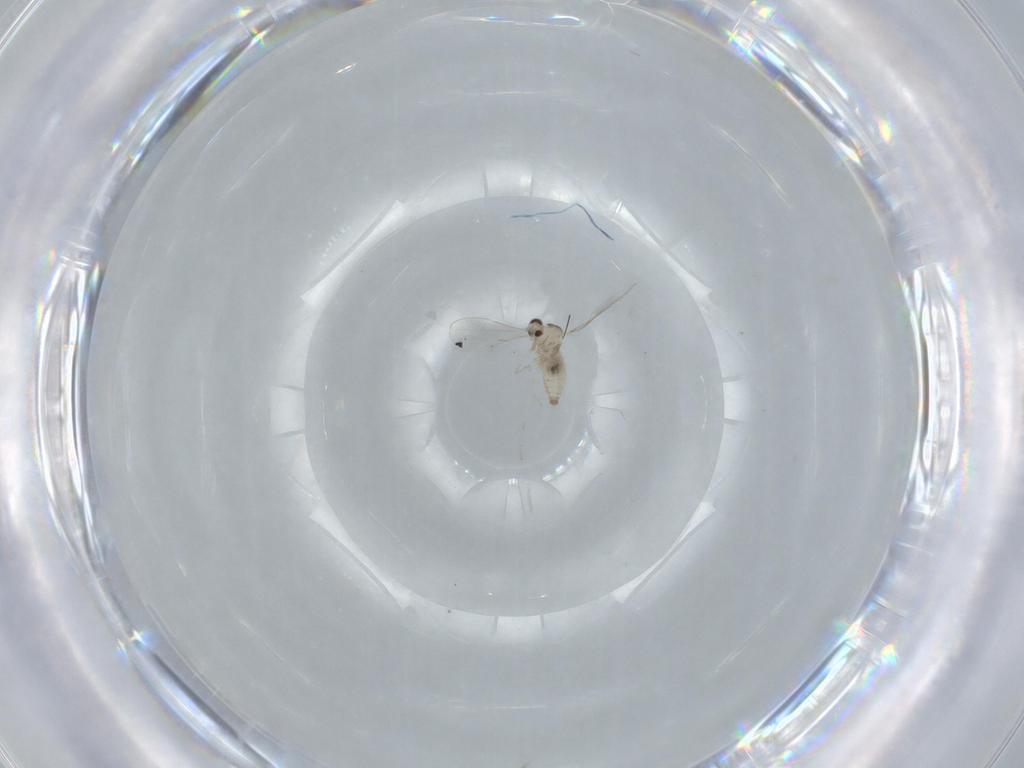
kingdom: Animalia
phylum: Arthropoda
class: Insecta
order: Diptera
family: Cecidomyiidae
